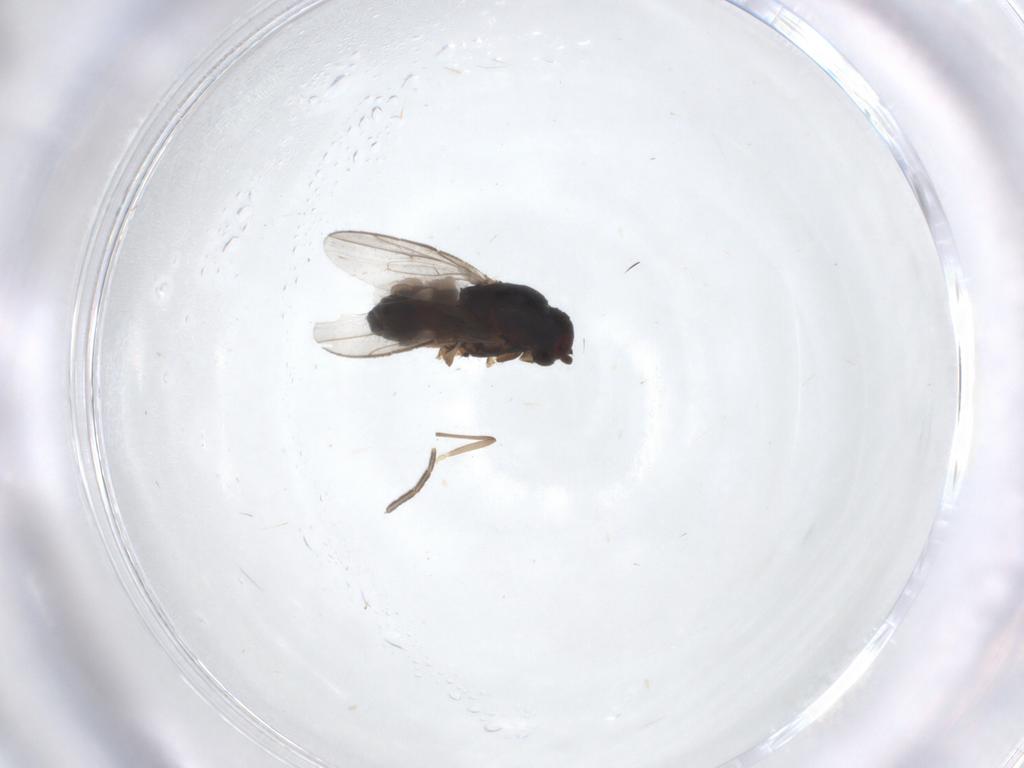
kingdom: Animalia
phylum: Arthropoda
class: Insecta
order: Diptera
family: Sphaeroceridae
